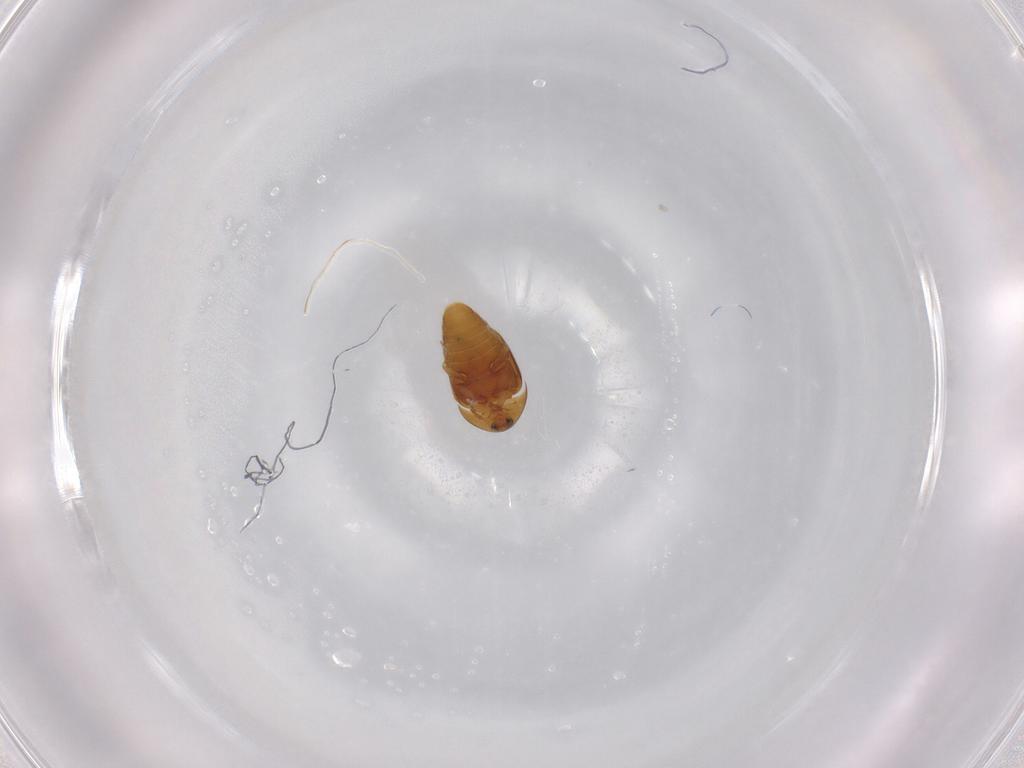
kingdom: Animalia
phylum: Arthropoda
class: Insecta
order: Coleoptera
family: Corylophidae
